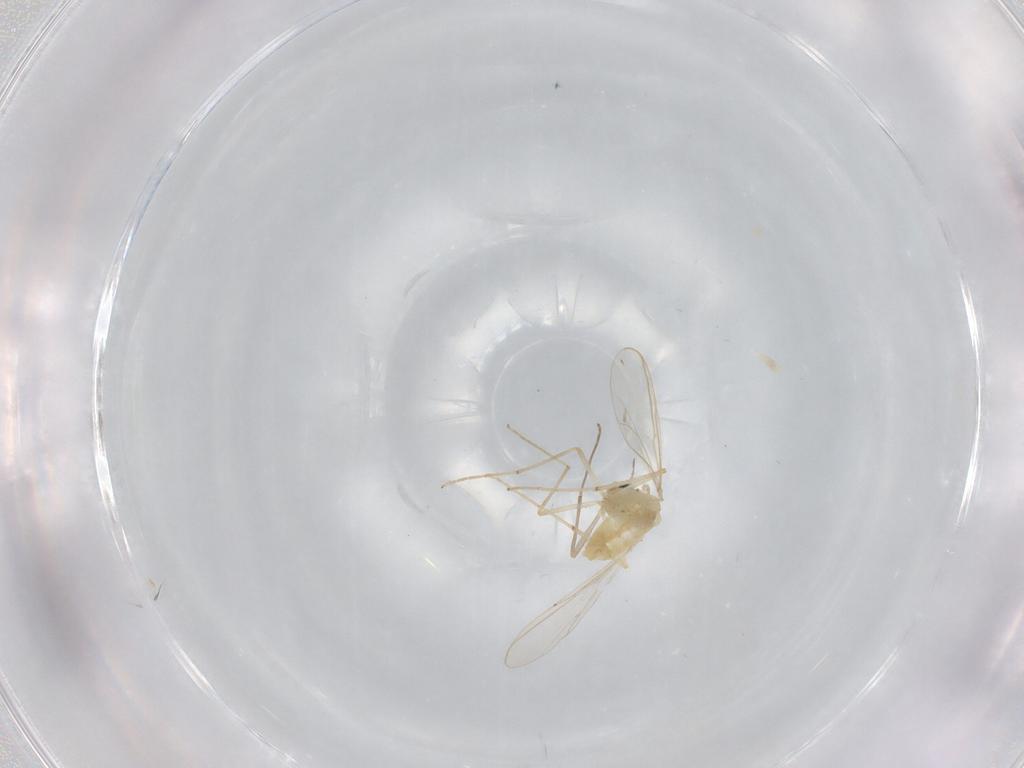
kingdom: Animalia
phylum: Arthropoda
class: Insecta
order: Diptera
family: Chironomidae
